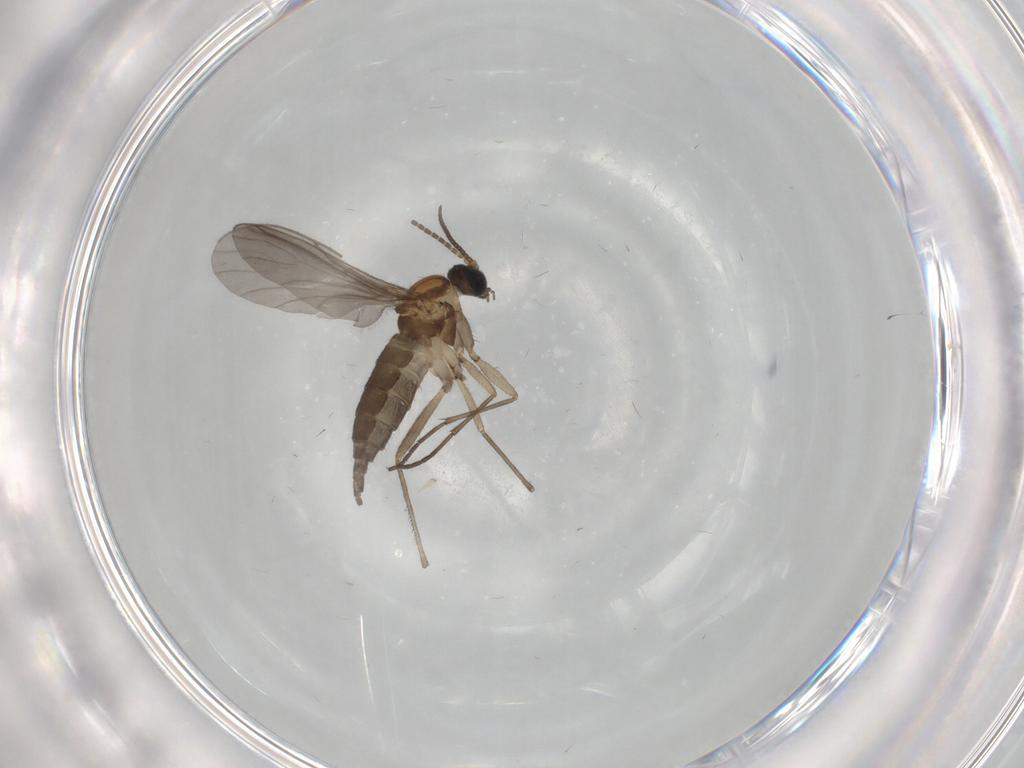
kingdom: Animalia
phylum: Arthropoda
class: Insecta
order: Diptera
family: Sciaridae
